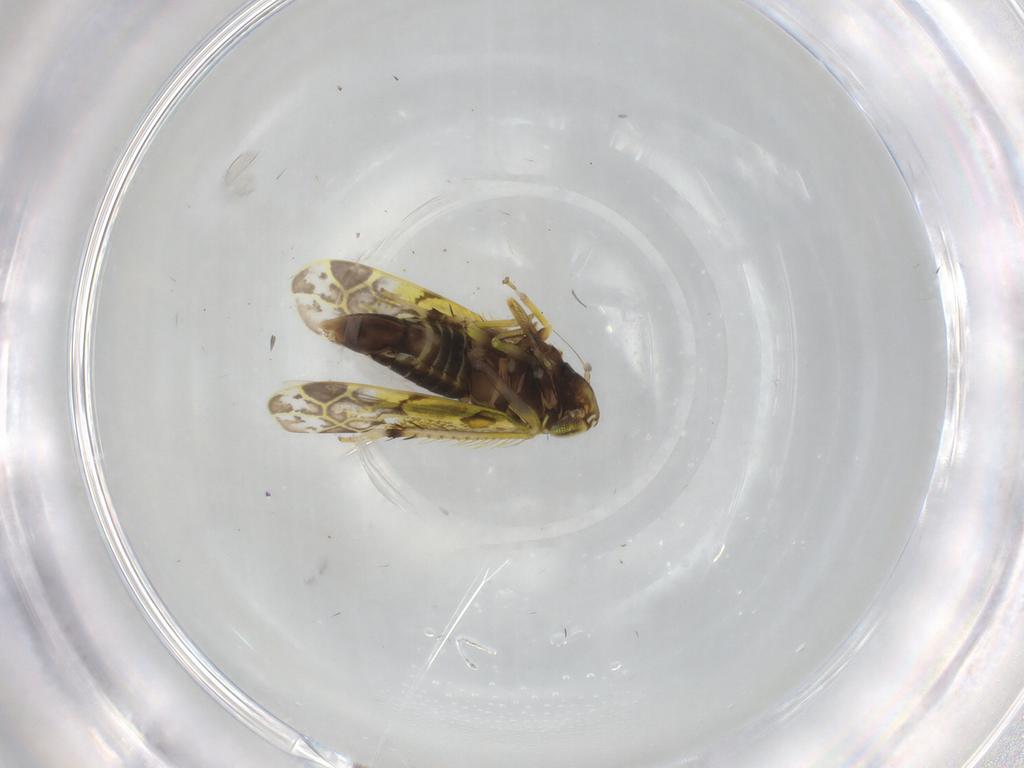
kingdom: Animalia
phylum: Arthropoda
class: Insecta
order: Hemiptera
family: Cicadellidae
